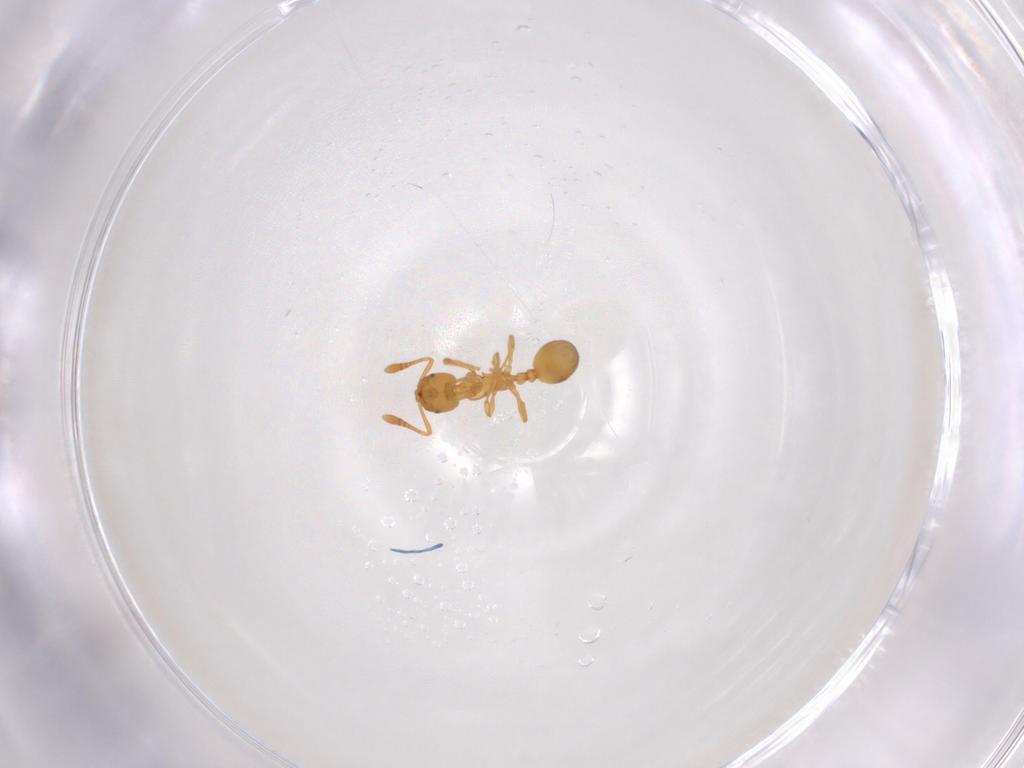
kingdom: Animalia
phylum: Arthropoda
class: Insecta
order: Hymenoptera
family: Formicidae
